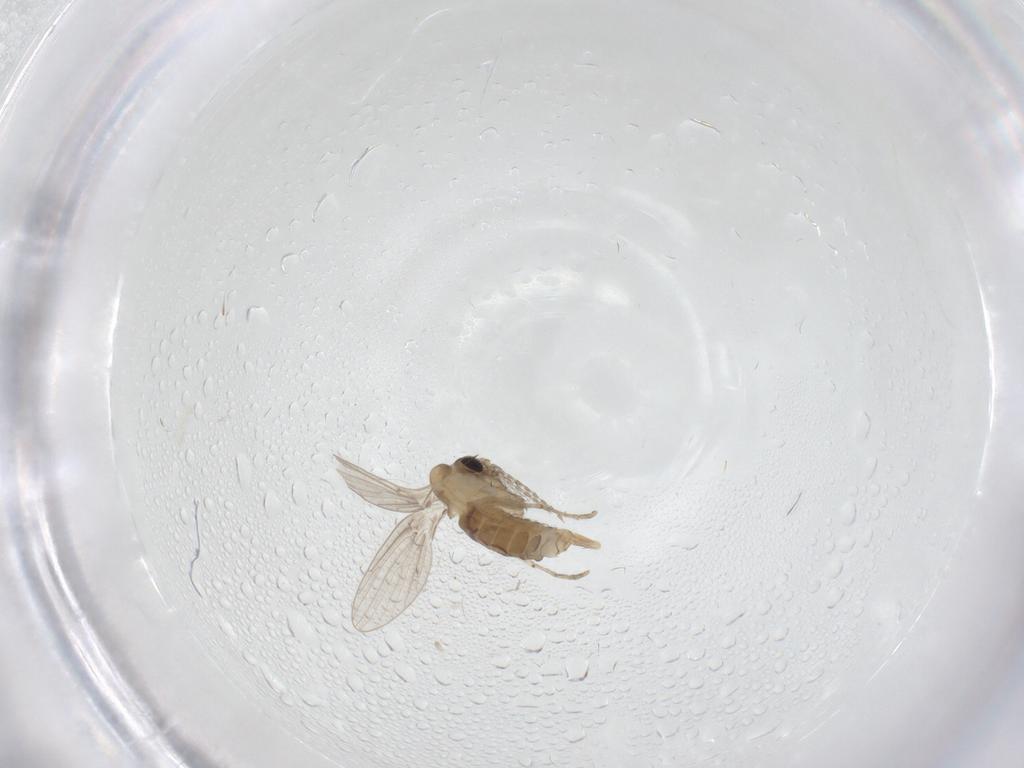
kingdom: Animalia
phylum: Arthropoda
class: Insecta
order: Diptera
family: Psychodidae
